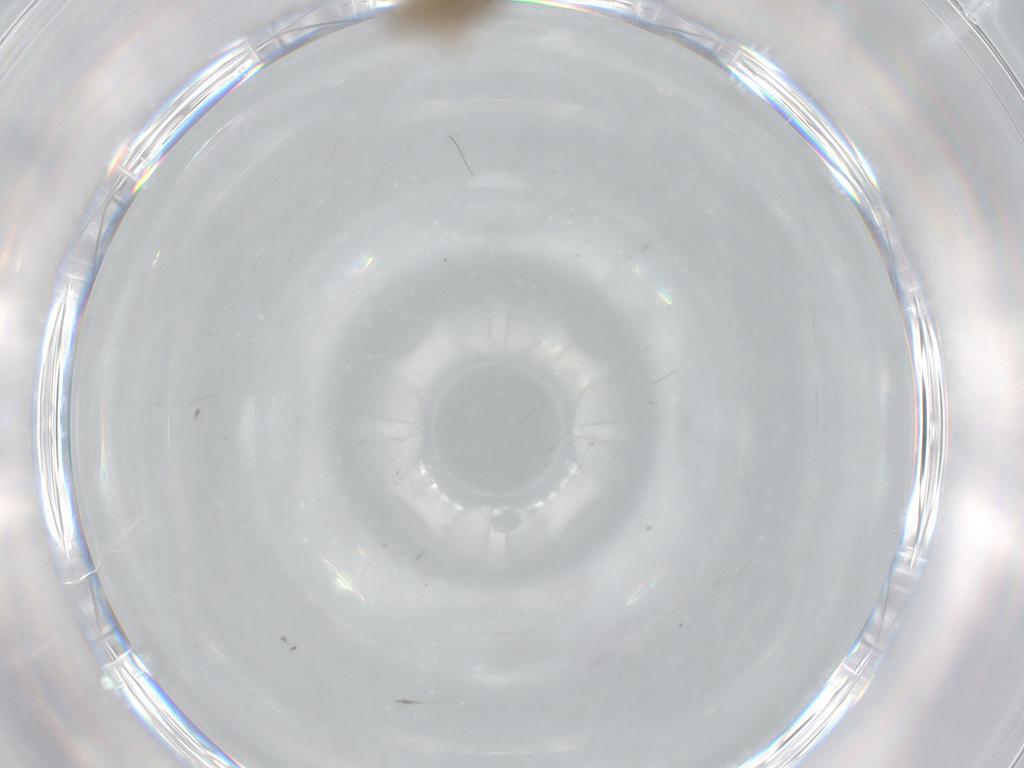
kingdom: Animalia
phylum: Arthropoda
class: Insecta
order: Diptera
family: Ceratopogonidae
